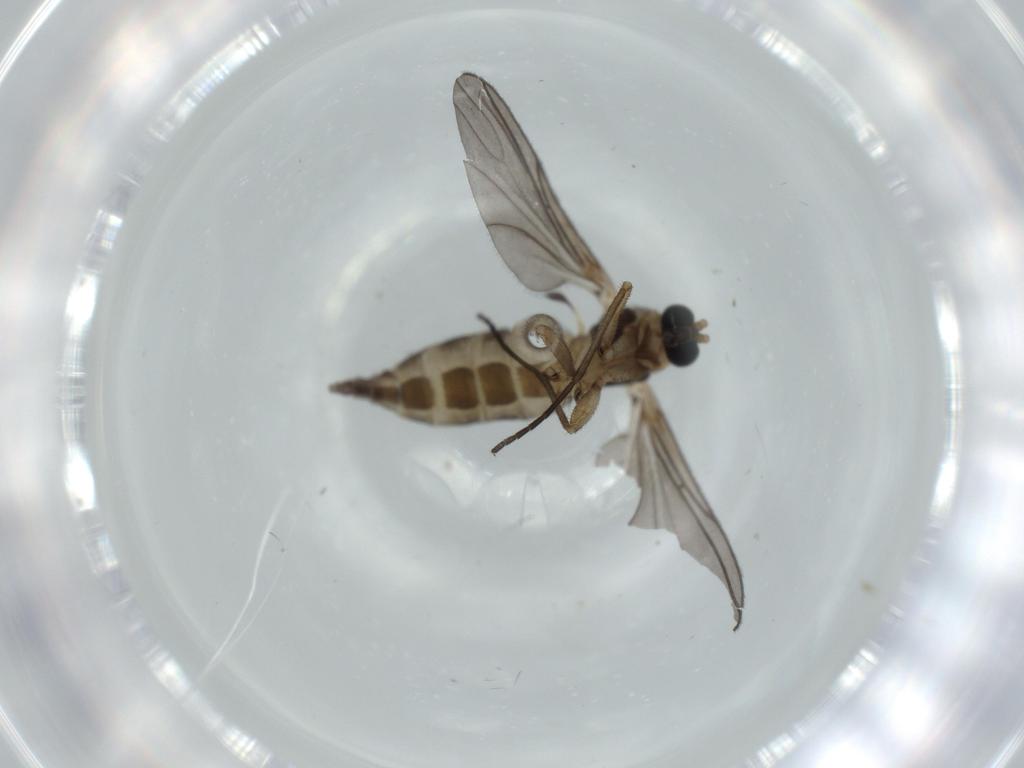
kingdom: Animalia
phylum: Arthropoda
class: Insecta
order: Diptera
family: Sciaridae
